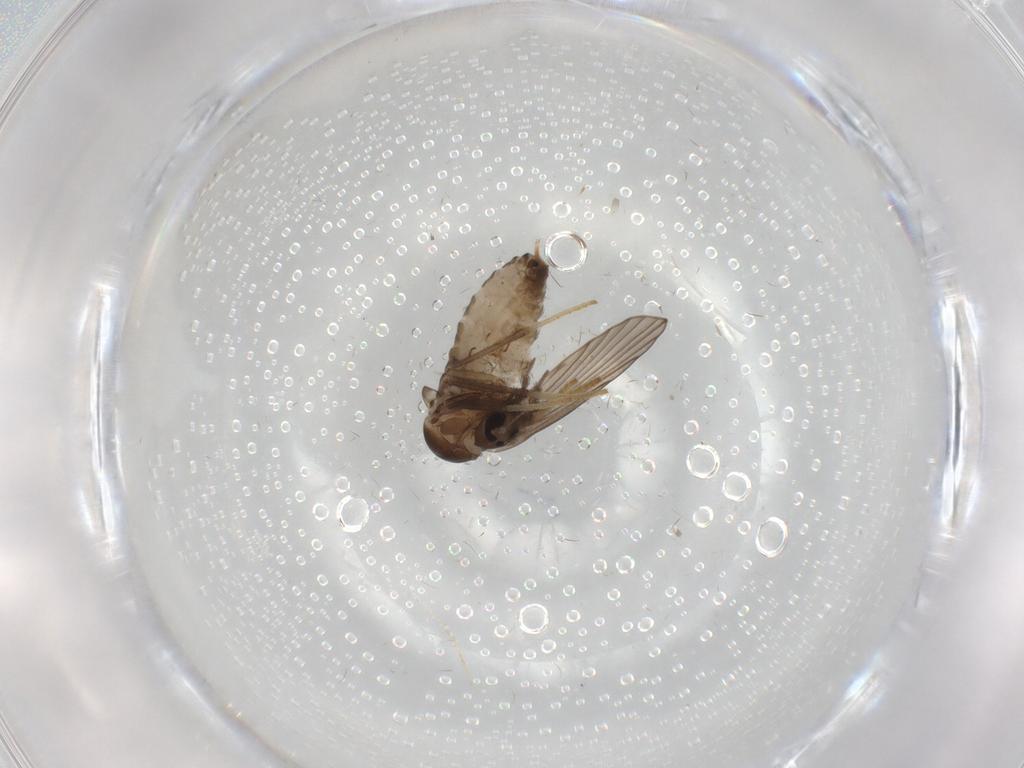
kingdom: Animalia
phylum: Arthropoda
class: Insecta
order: Diptera
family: Psychodidae
